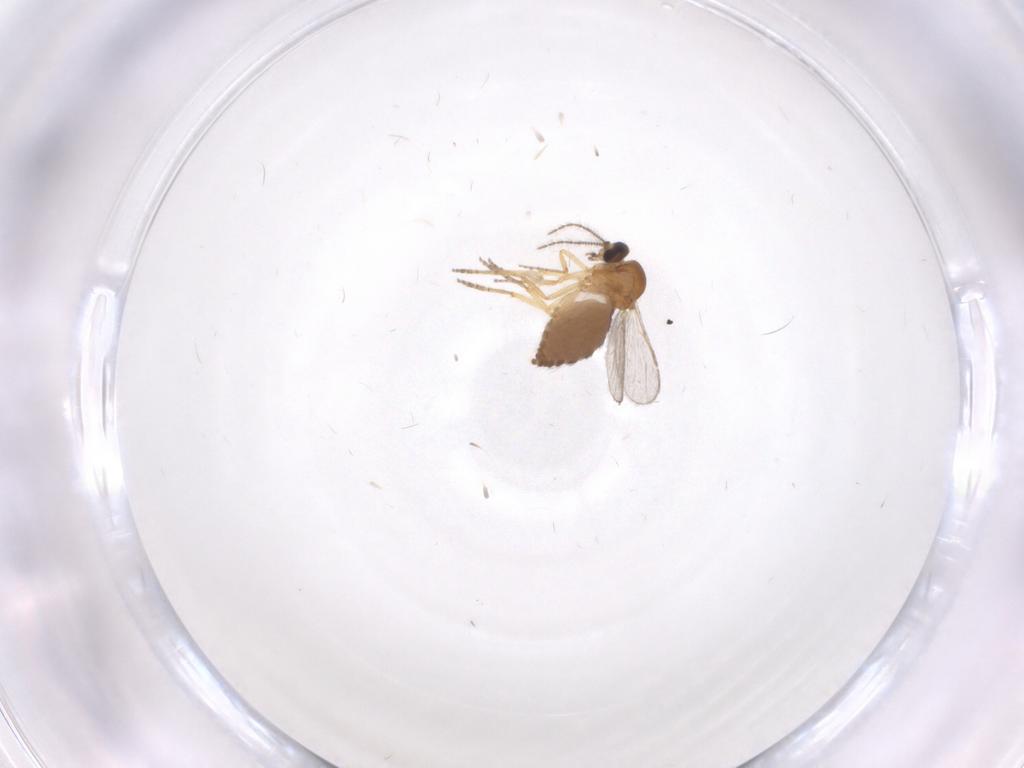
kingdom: Animalia
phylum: Arthropoda
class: Insecta
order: Diptera
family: Ceratopogonidae
